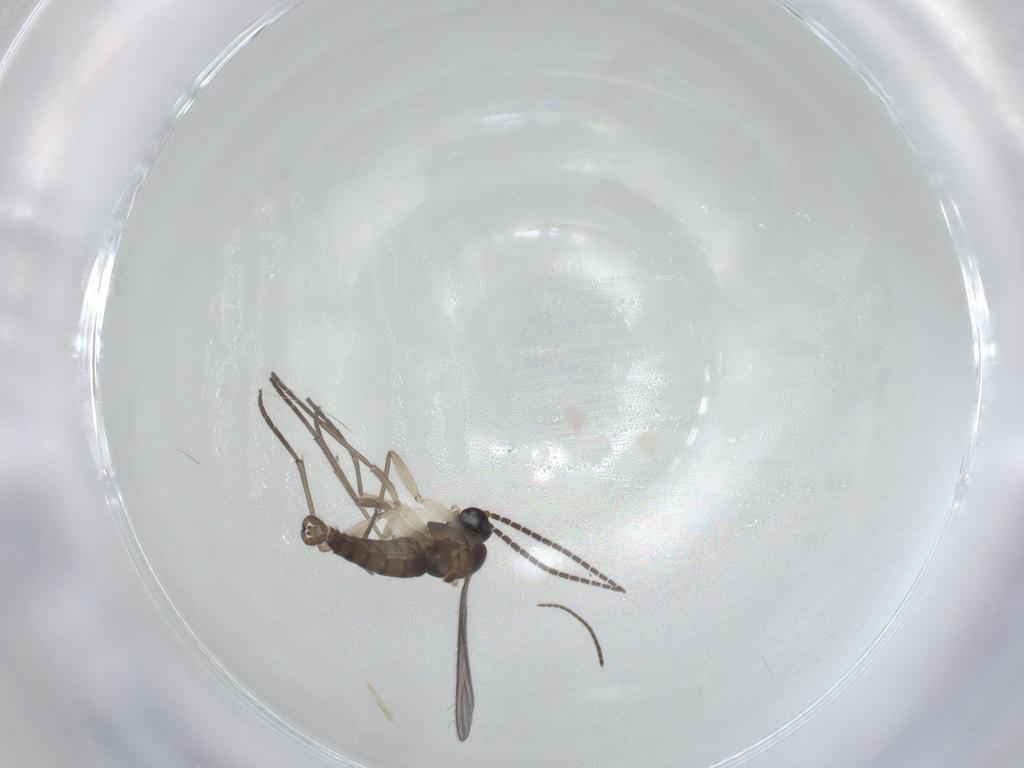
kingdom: Animalia
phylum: Arthropoda
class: Insecta
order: Diptera
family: Sciaridae
